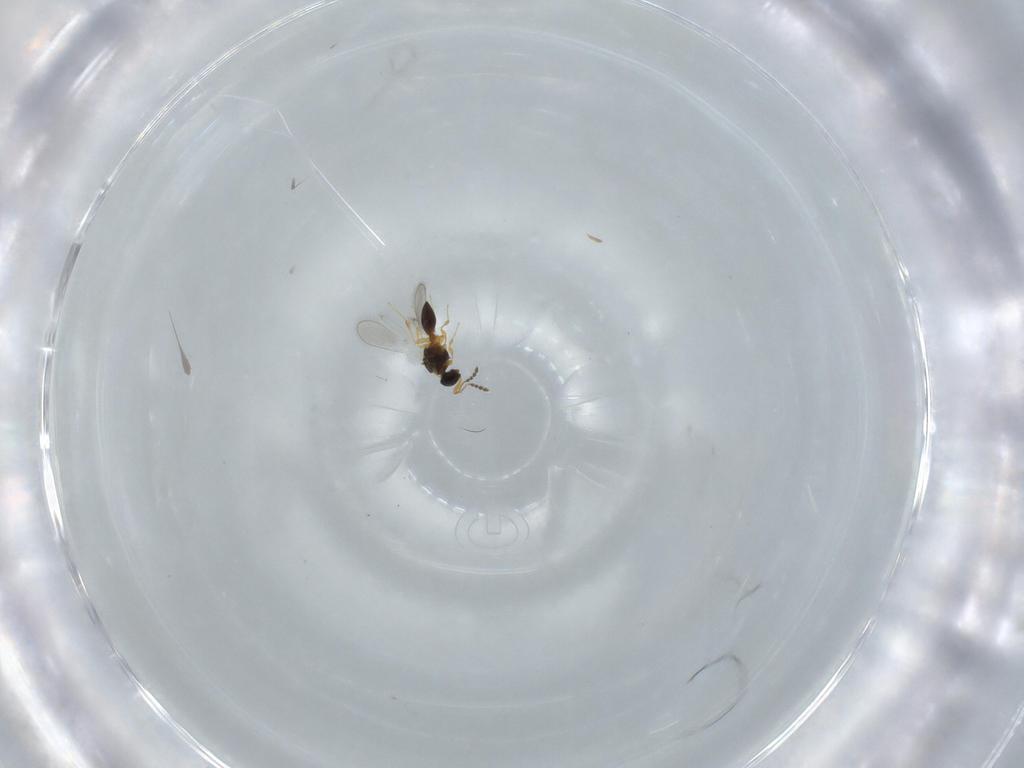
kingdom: Animalia
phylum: Arthropoda
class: Insecta
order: Hymenoptera
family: Platygastridae
